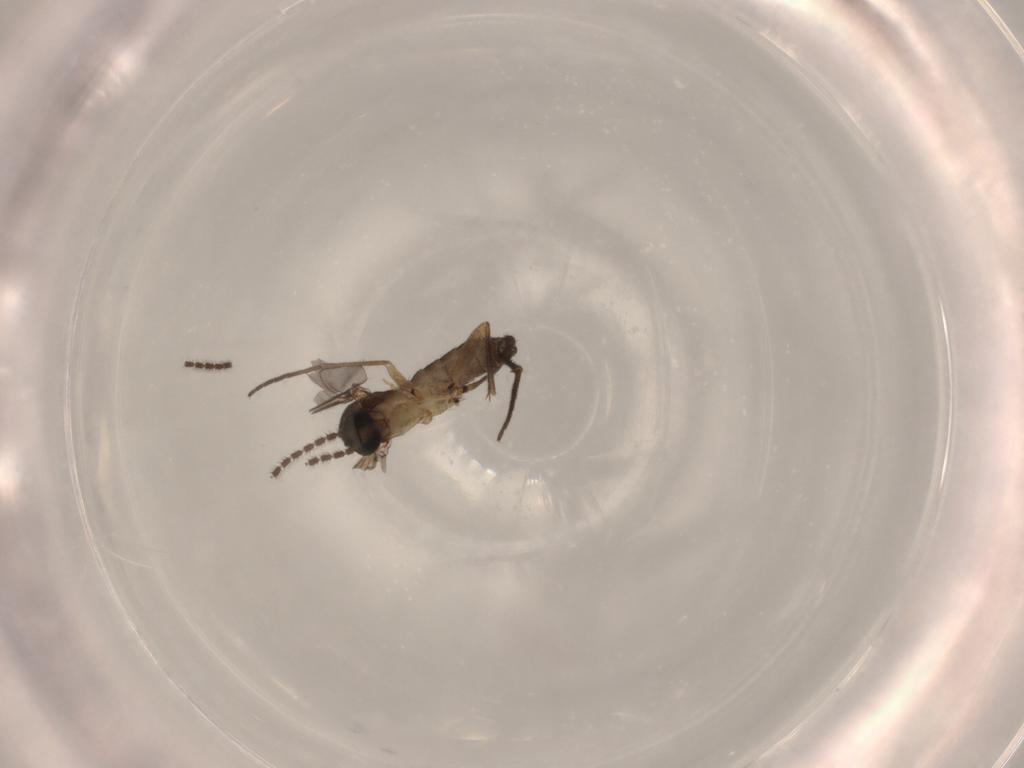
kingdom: Animalia
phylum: Arthropoda
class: Insecta
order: Diptera
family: Sciaridae
